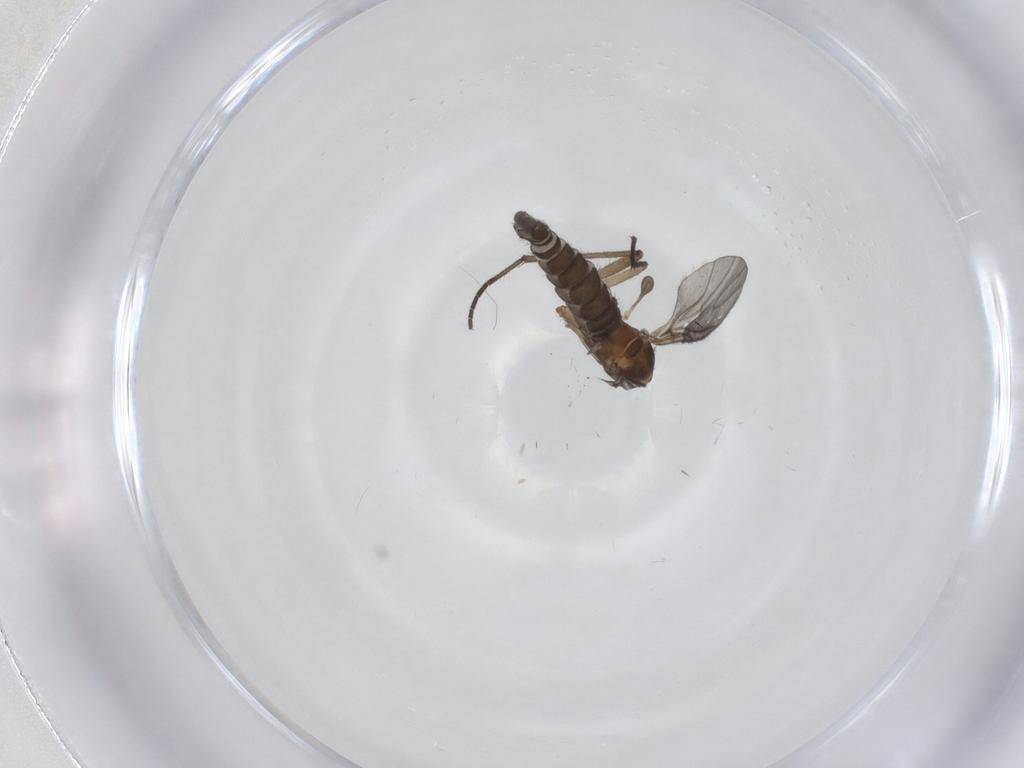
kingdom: Animalia
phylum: Arthropoda
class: Insecta
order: Diptera
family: Sciaridae
